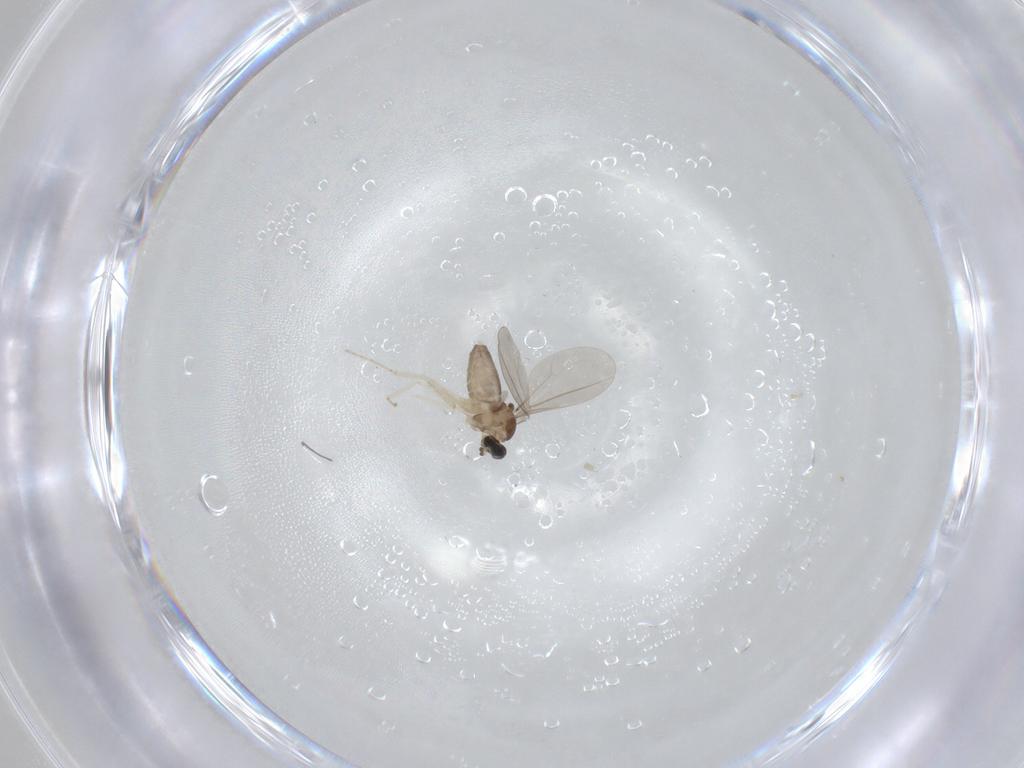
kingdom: Animalia
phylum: Arthropoda
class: Insecta
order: Diptera
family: Cecidomyiidae
